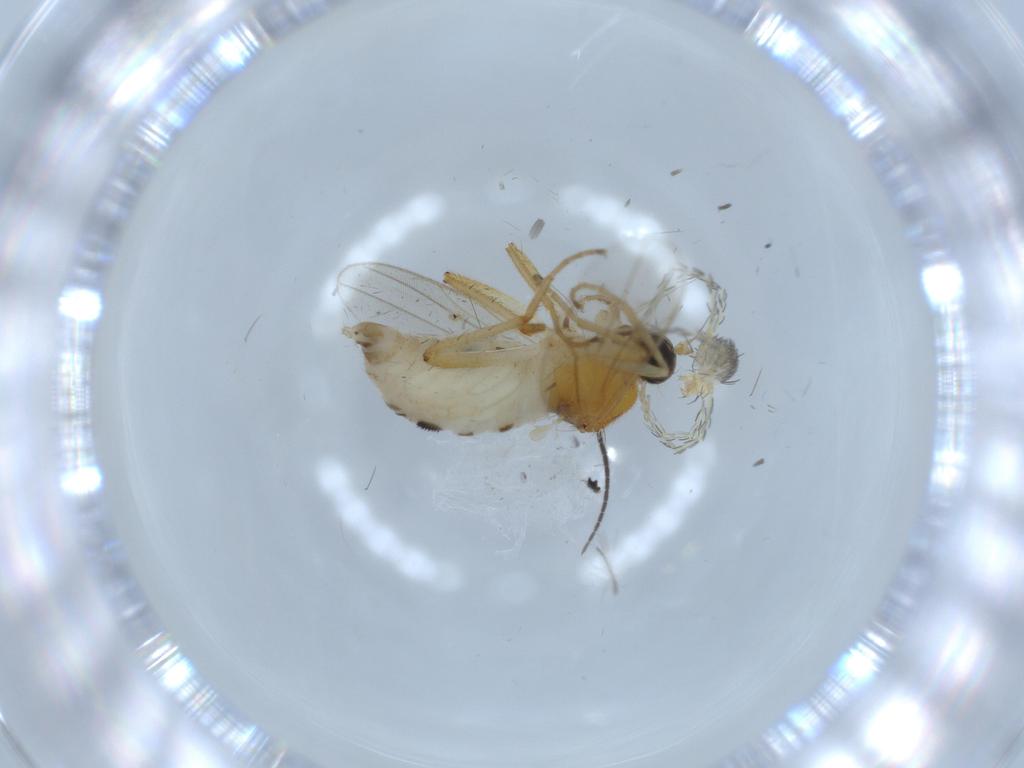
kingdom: Animalia
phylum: Arthropoda
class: Insecta
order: Diptera
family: Hybotidae
